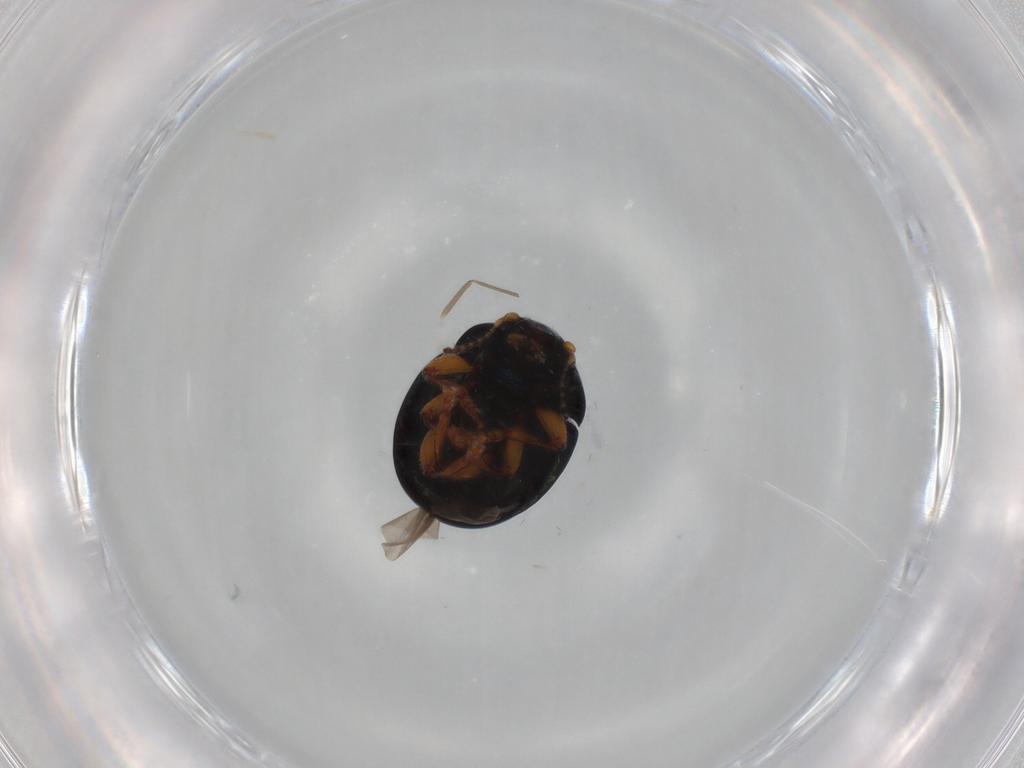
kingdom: Animalia
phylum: Arthropoda
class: Insecta
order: Coleoptera
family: Chrysomelidae
